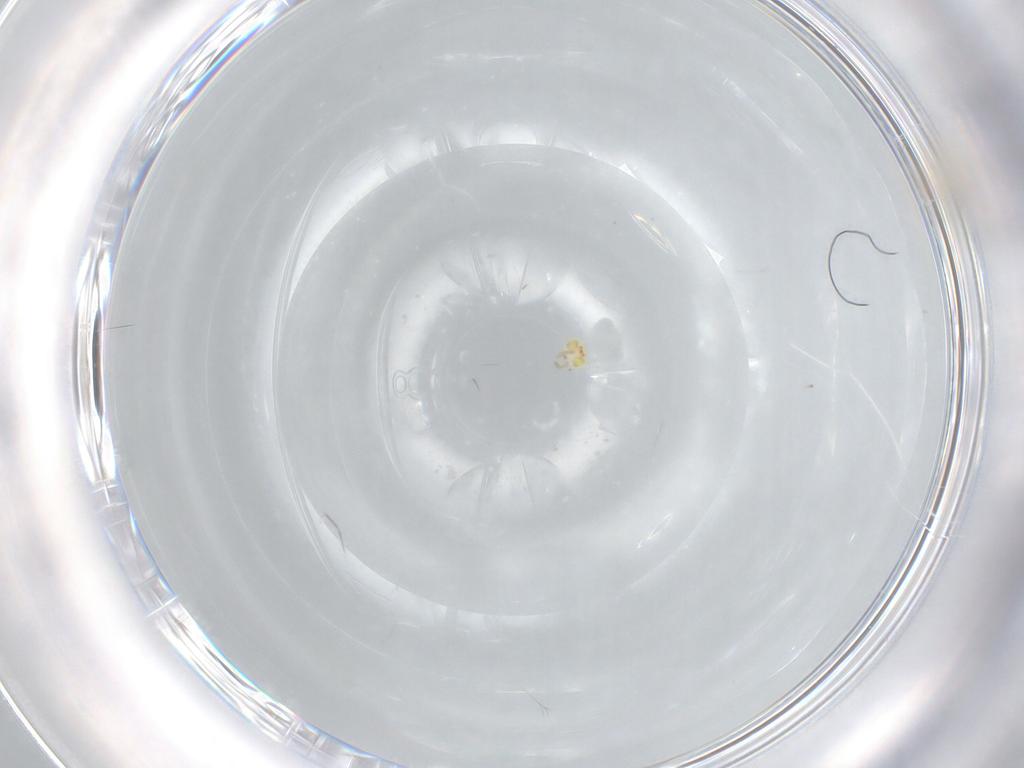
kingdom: Animalia
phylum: Arthropoda
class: Insecta
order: Hymenoptera
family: Aphelinidae
